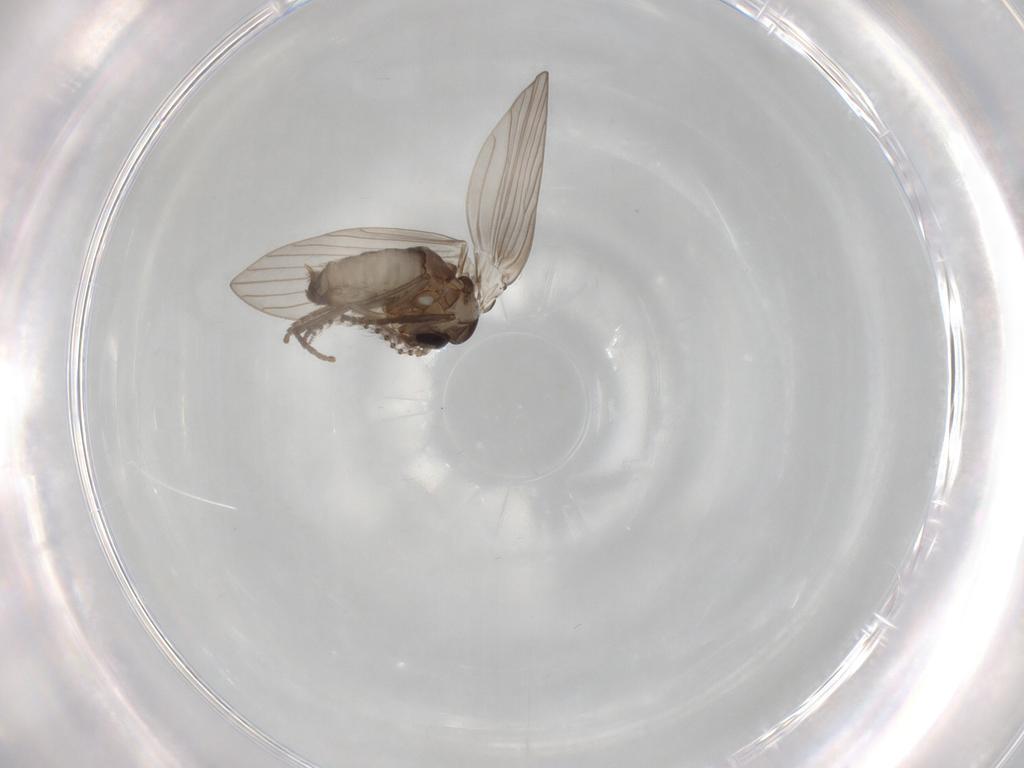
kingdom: Animalia
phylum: Arthropoda
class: Insecta
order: Diptera
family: Psychodidae
